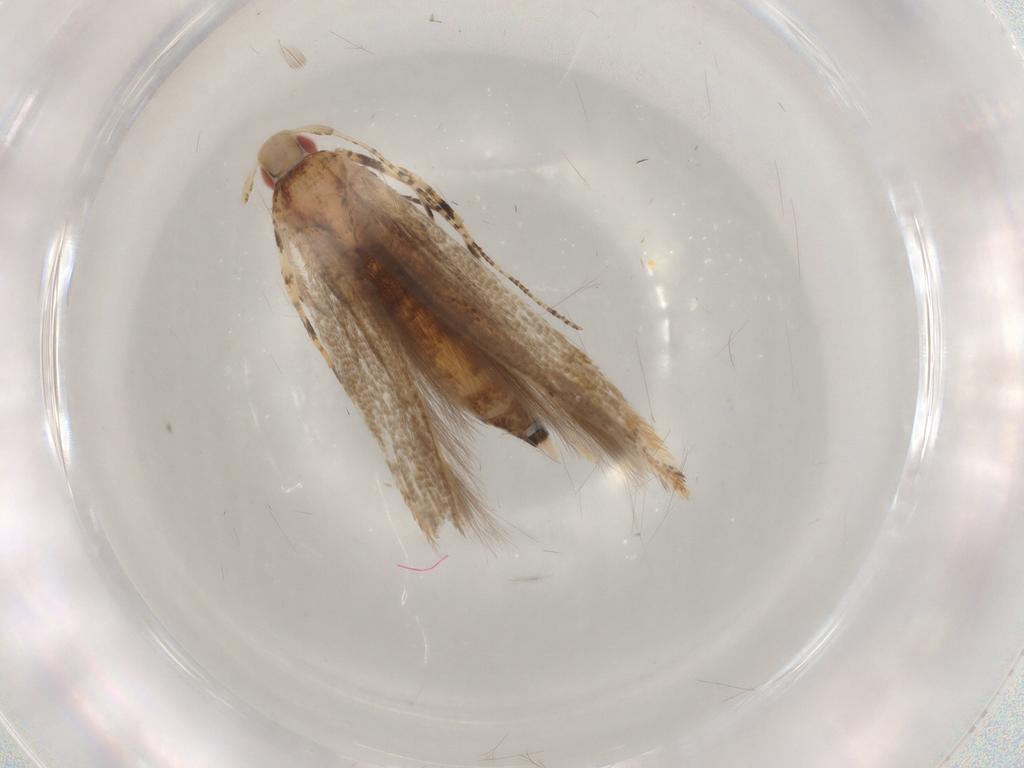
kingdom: Animalia
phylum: Arthropoda
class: Insecta
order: Lepidoptera
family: Cosmopterigidae
